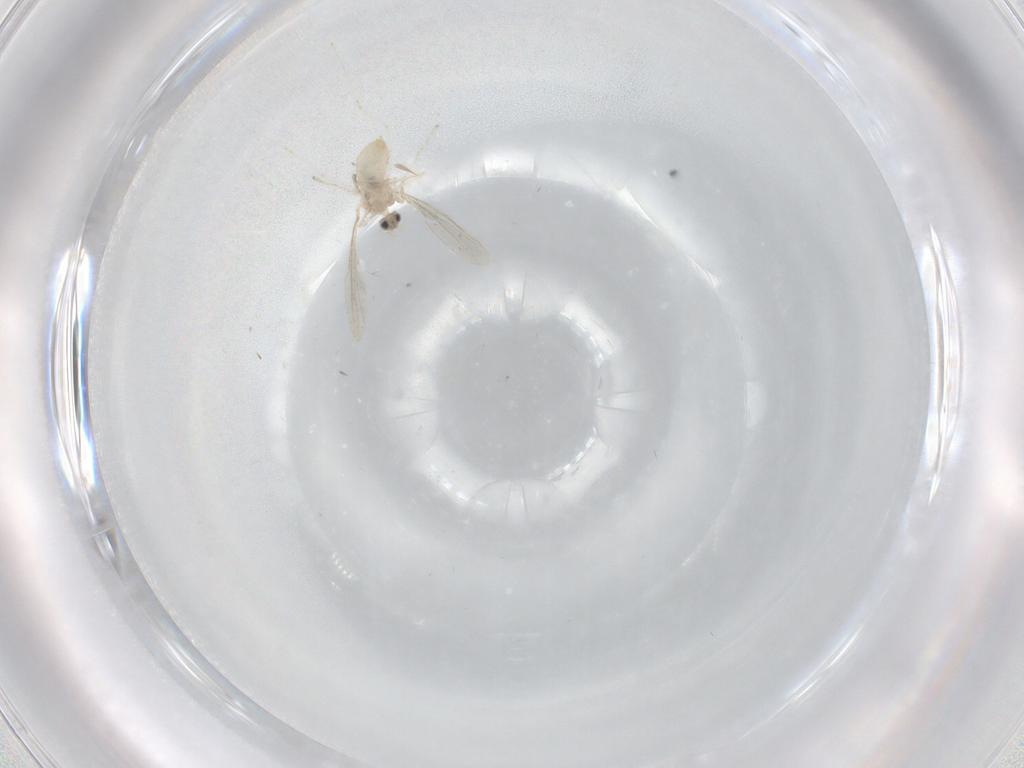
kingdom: Animalia
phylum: Arthropoda
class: Insecta
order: Diptera
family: Cecidomyiidae
